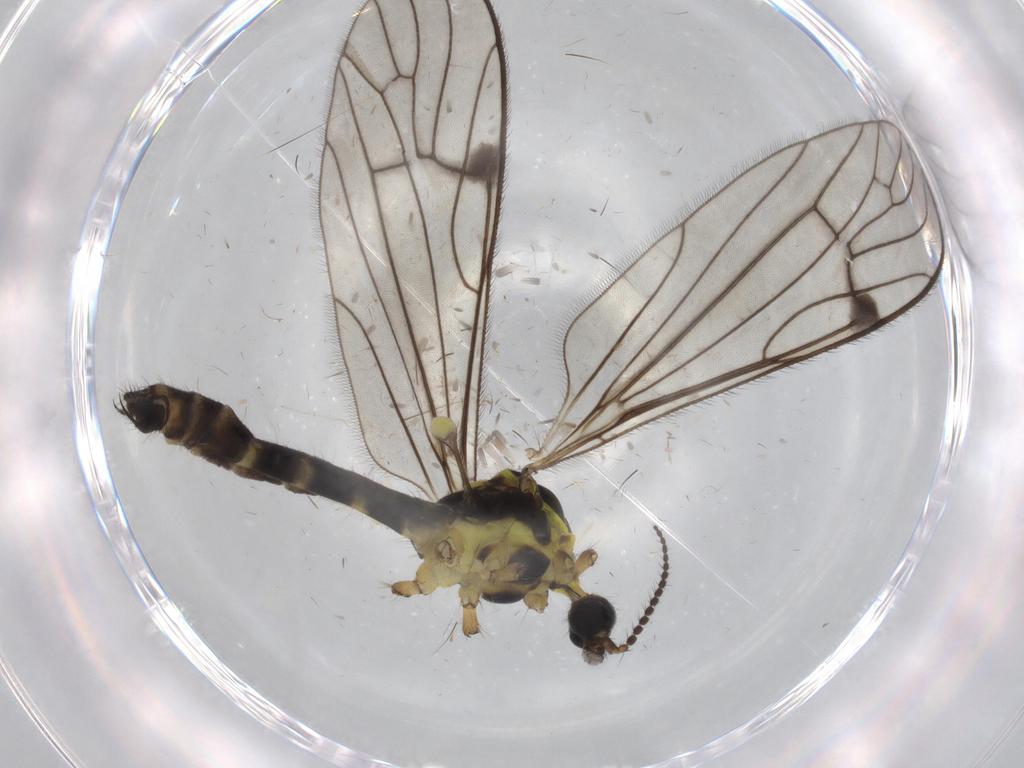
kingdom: Animalia
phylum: Arthropoda
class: Insecta
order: Diptera
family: Limoniidae
